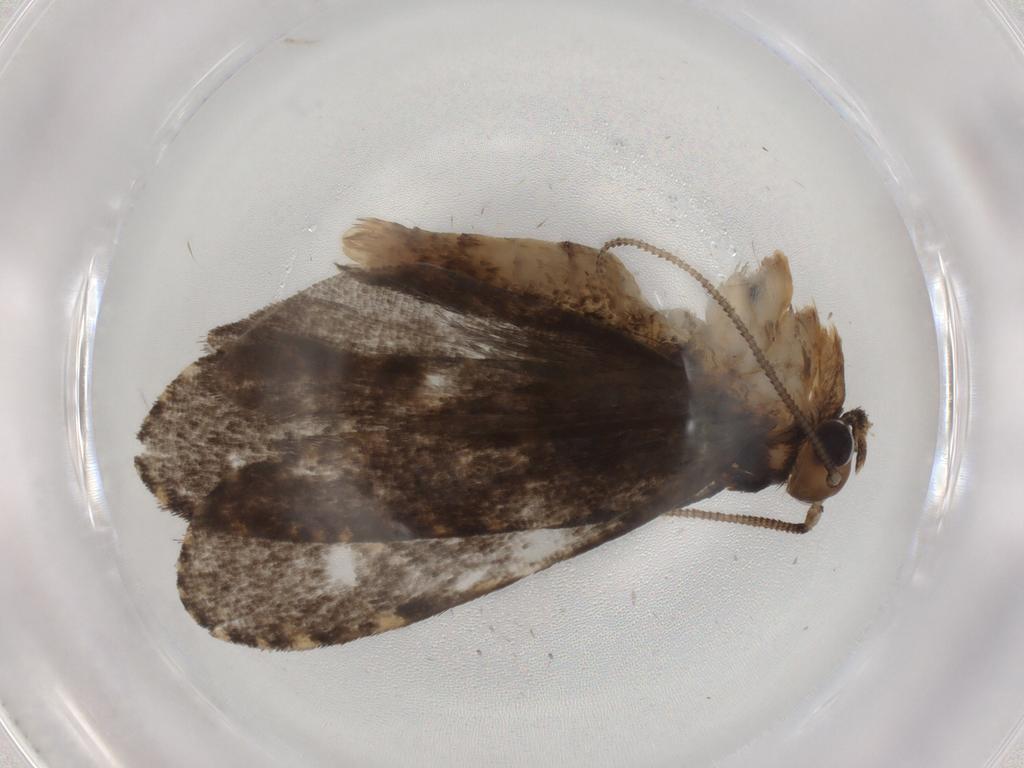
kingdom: Animalia
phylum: Arthropoda
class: Insecta
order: Lepidoptera
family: Tineidae
